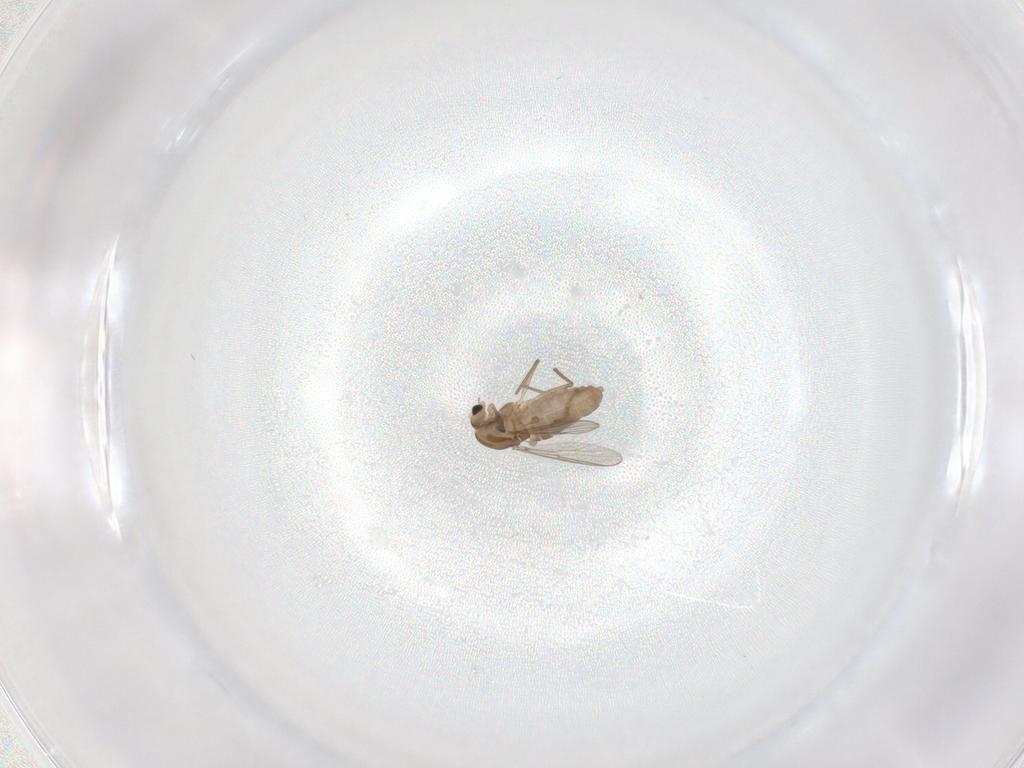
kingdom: Animalia
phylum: Arthropoda
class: Insecta
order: Diptera
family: Chironomidae
